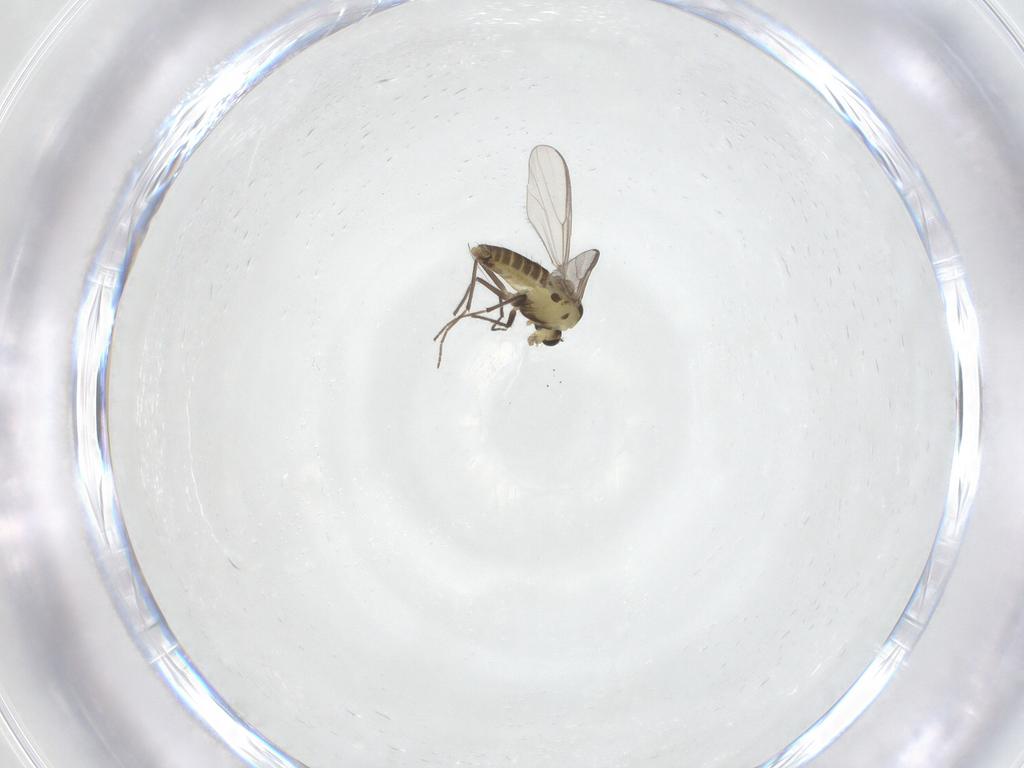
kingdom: Animalia
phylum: Arthropoda
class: Insecta
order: Diptera
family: Chironomidae
